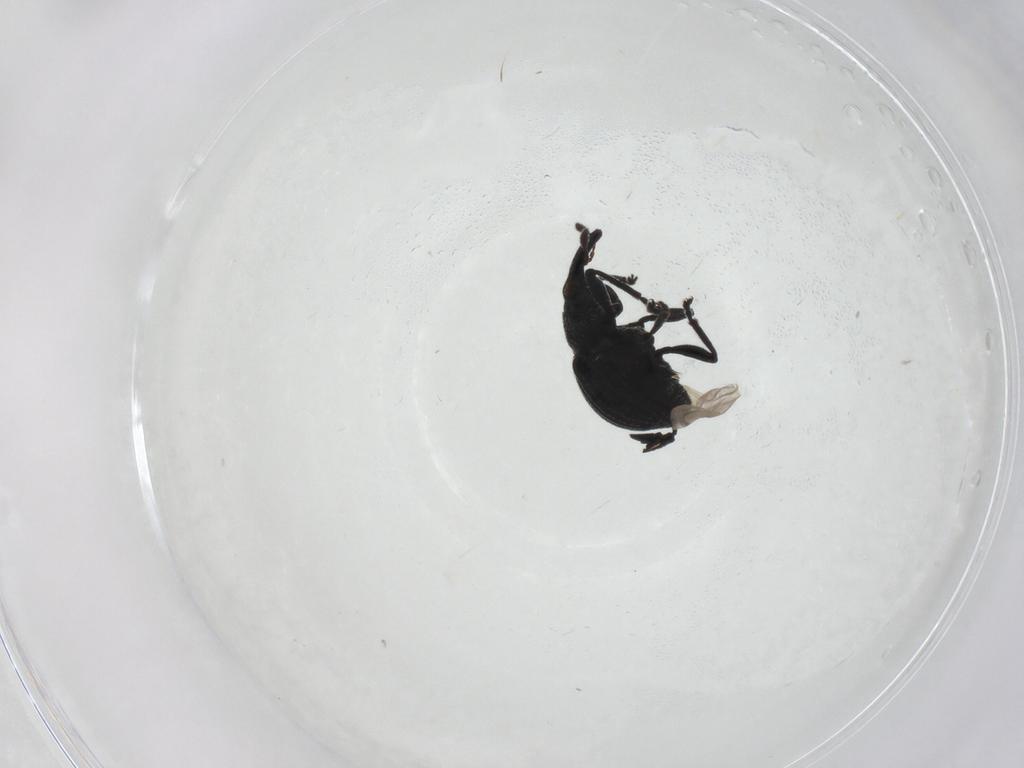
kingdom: Animalia
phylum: Arthropoda
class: Insecta
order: Coleoptera
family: Brentidae
